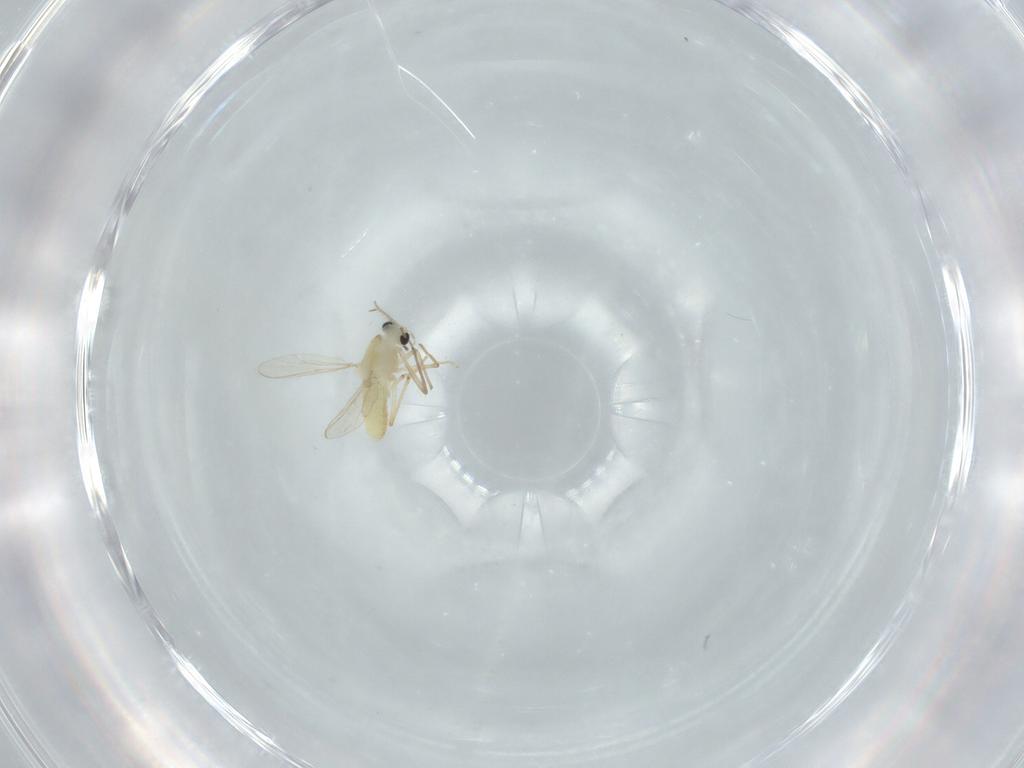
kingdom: Animalia
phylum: Arthropoda
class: Insecta
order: Diptera
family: Chironomidae
